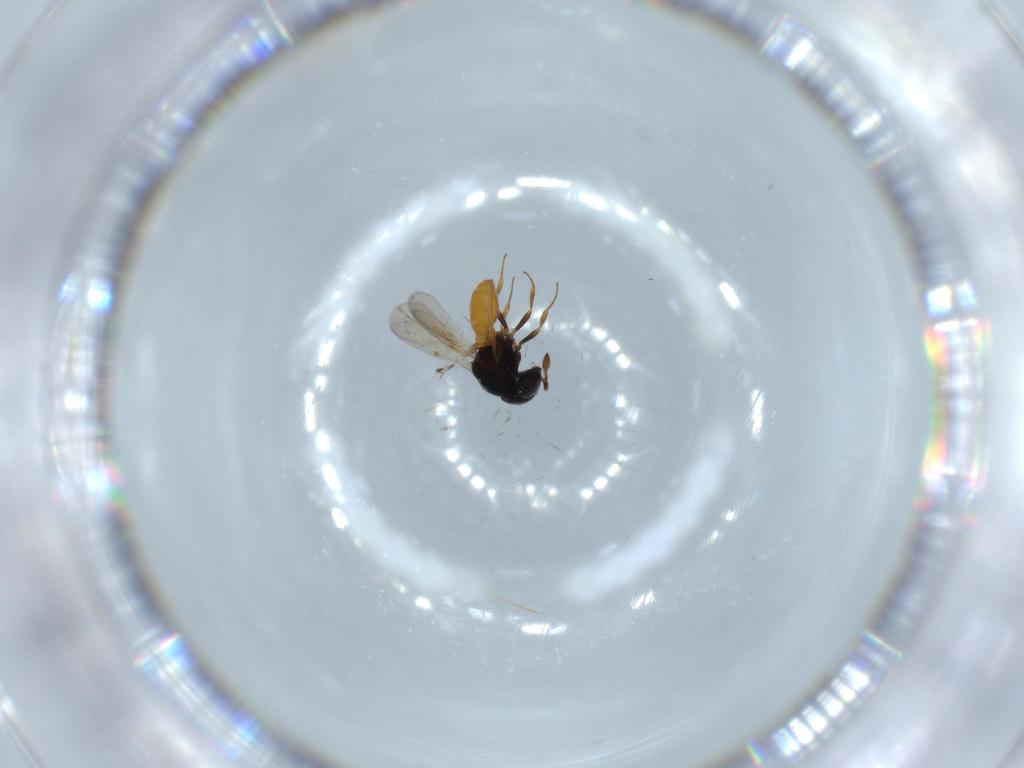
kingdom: Animalia
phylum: Arthropoda
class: Insecta
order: Hymenoptera
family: Scelionidae
